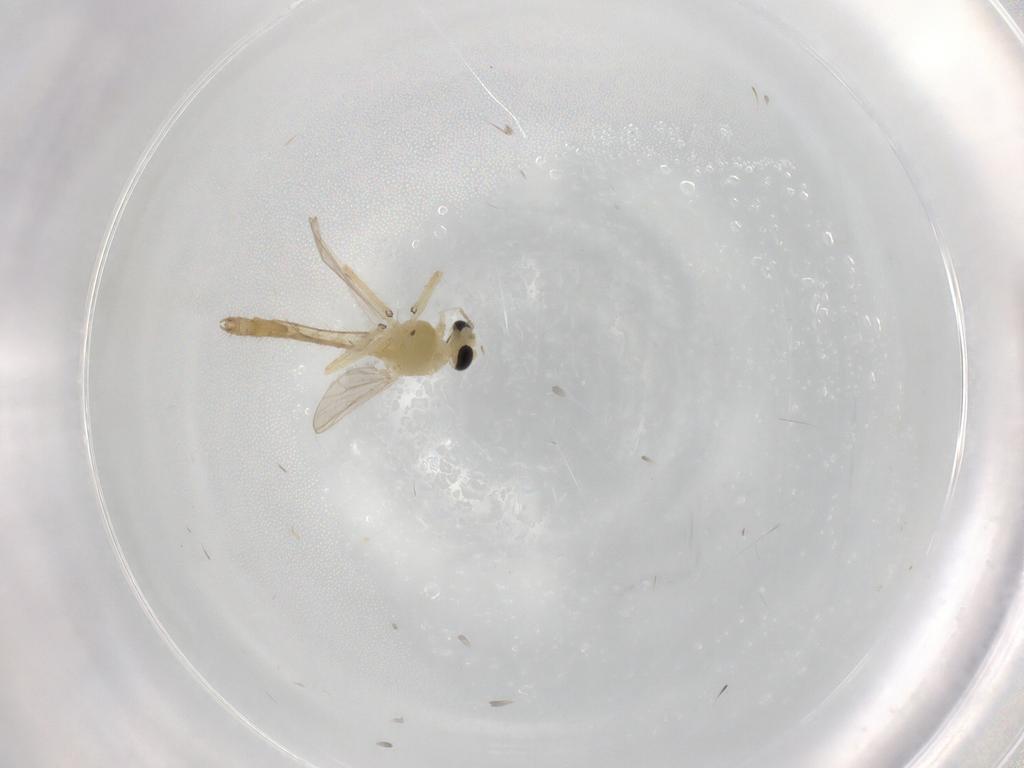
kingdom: Animalia
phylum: Arthropoda
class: Insecta
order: Diptera
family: Chironomidae
